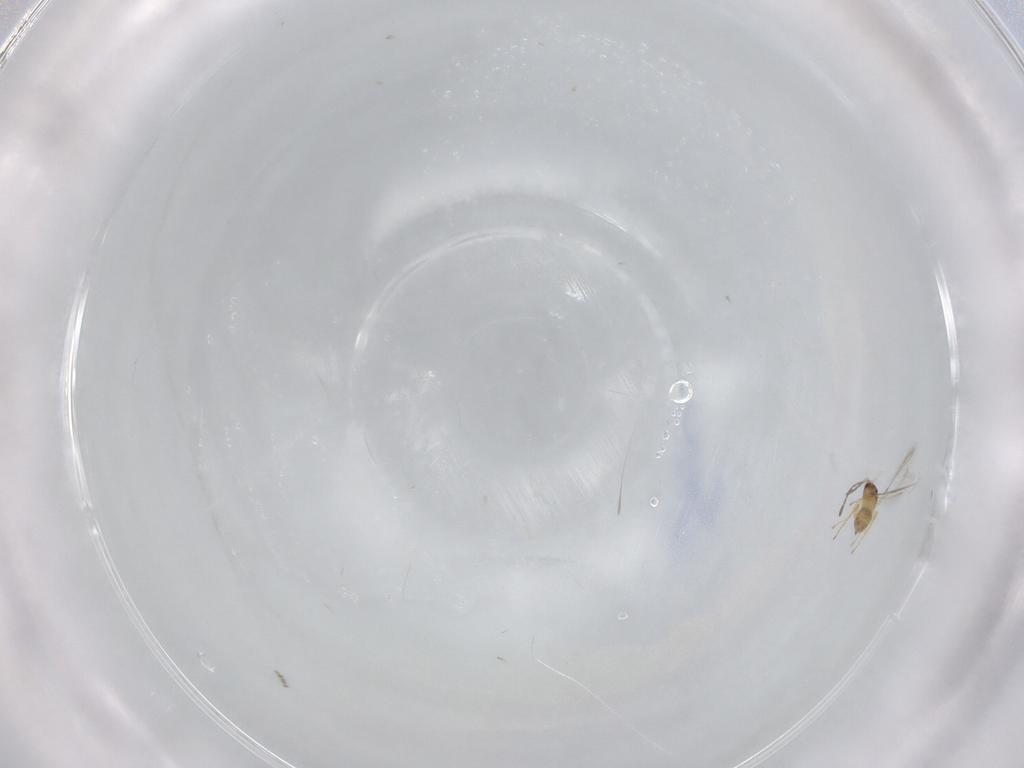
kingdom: Animalia
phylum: Arthropoda
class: Insecta
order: Hymenoptera
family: Mymaridae
